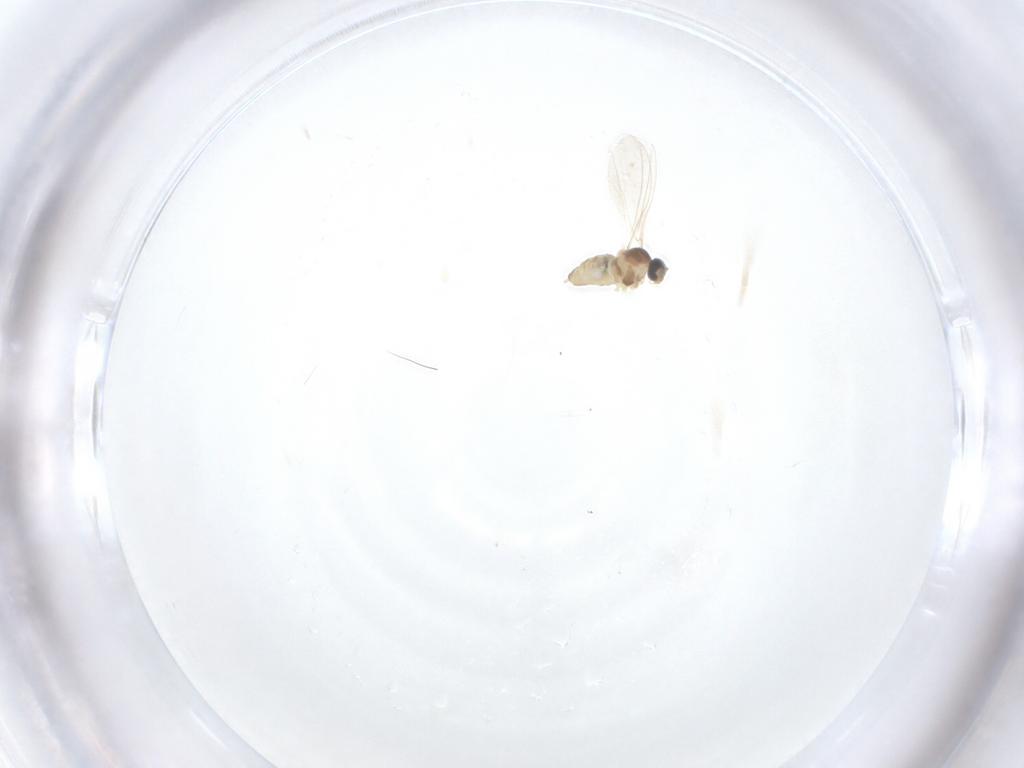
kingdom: Animalia
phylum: Arthropoda
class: Insecta
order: Diptera
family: Cecidomyiidae
